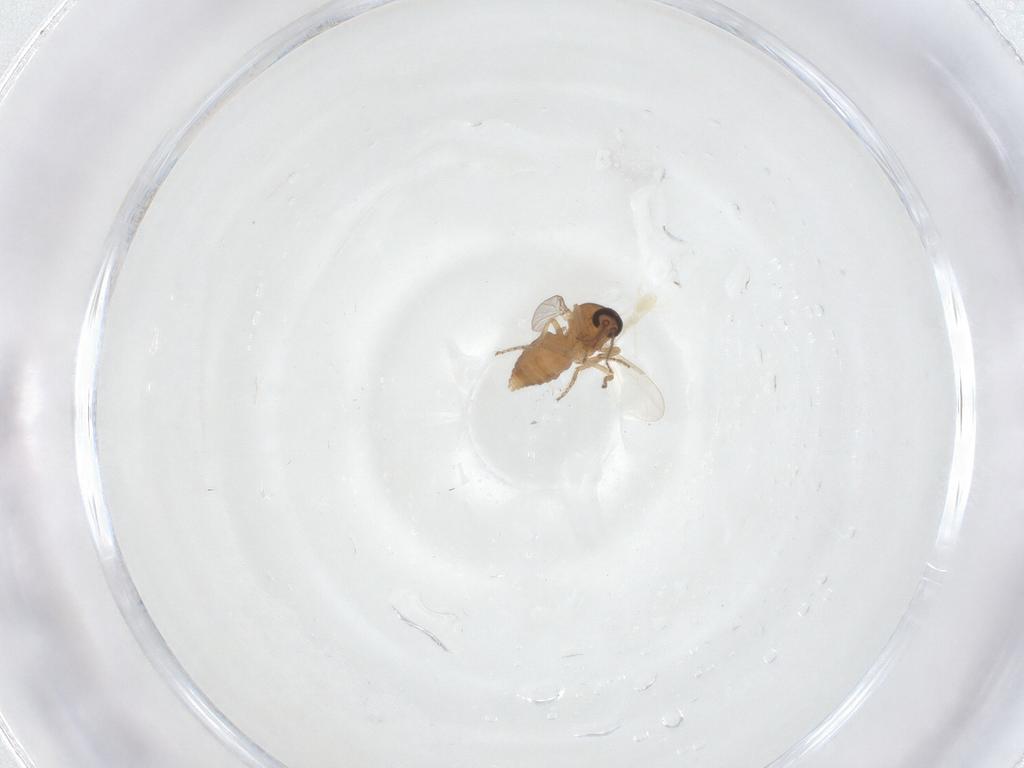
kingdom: Animalia
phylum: Arthropoda
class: Insecta
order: Diptera
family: Ceratopogonidae
